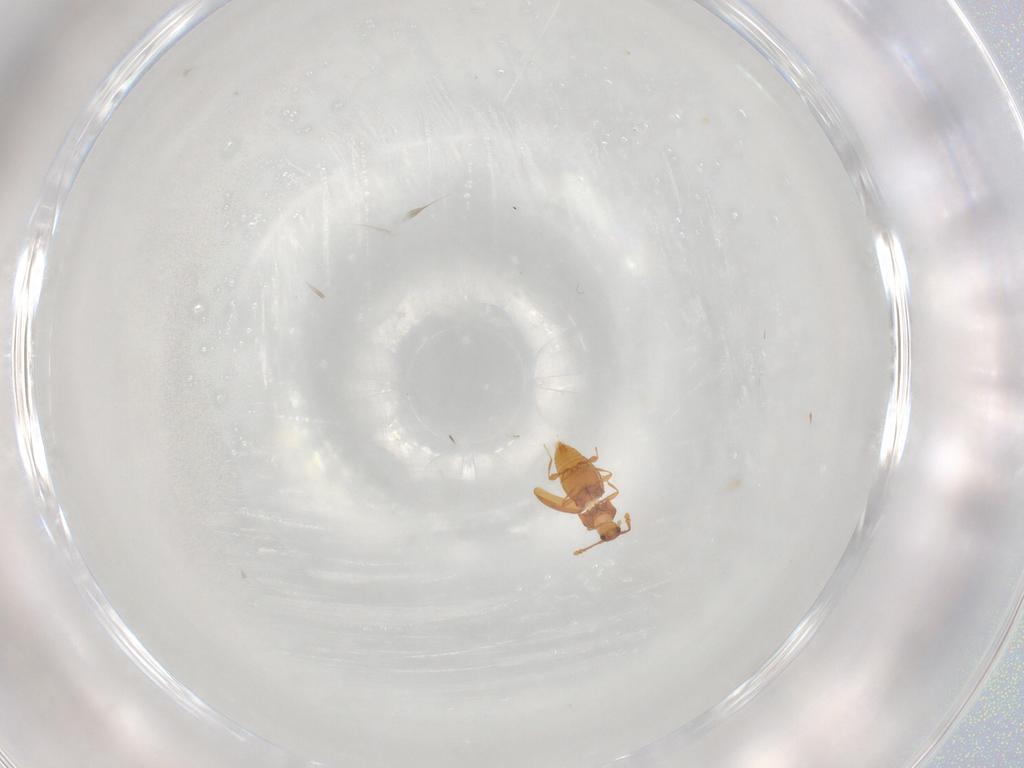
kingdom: Animalia
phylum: Arthropoda
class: Insecta
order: Coleoptera
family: Staphylinidae
